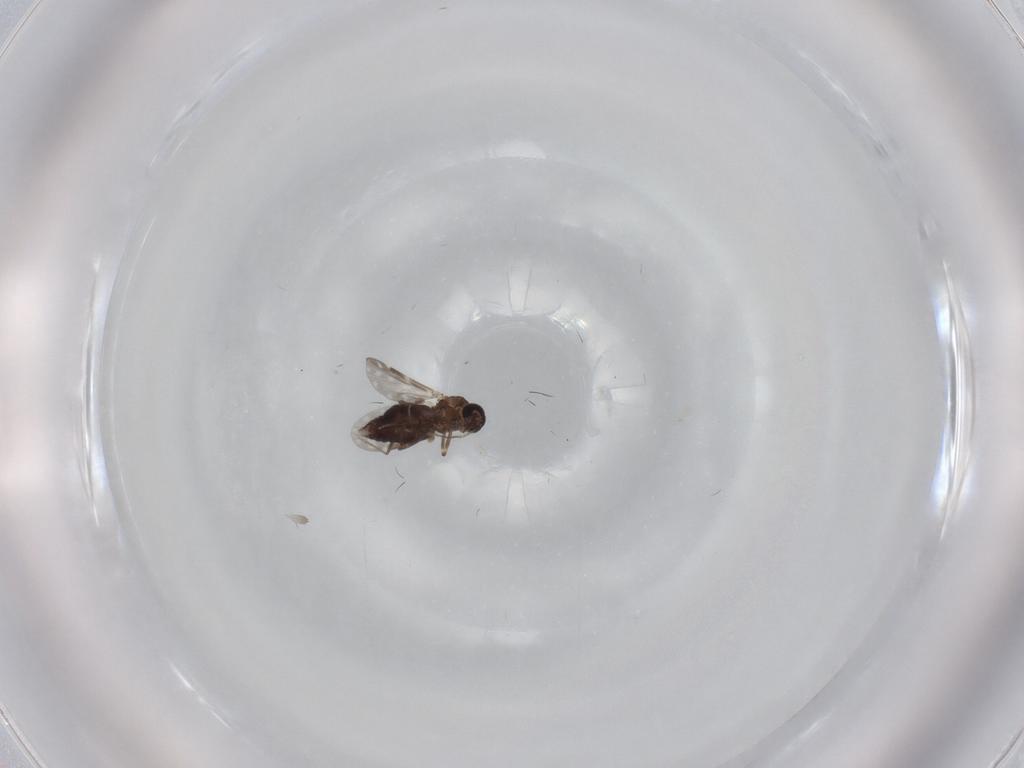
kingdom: Animalia
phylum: Arthropoda
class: Insecta
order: Diptera
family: Ceratopogonidae
